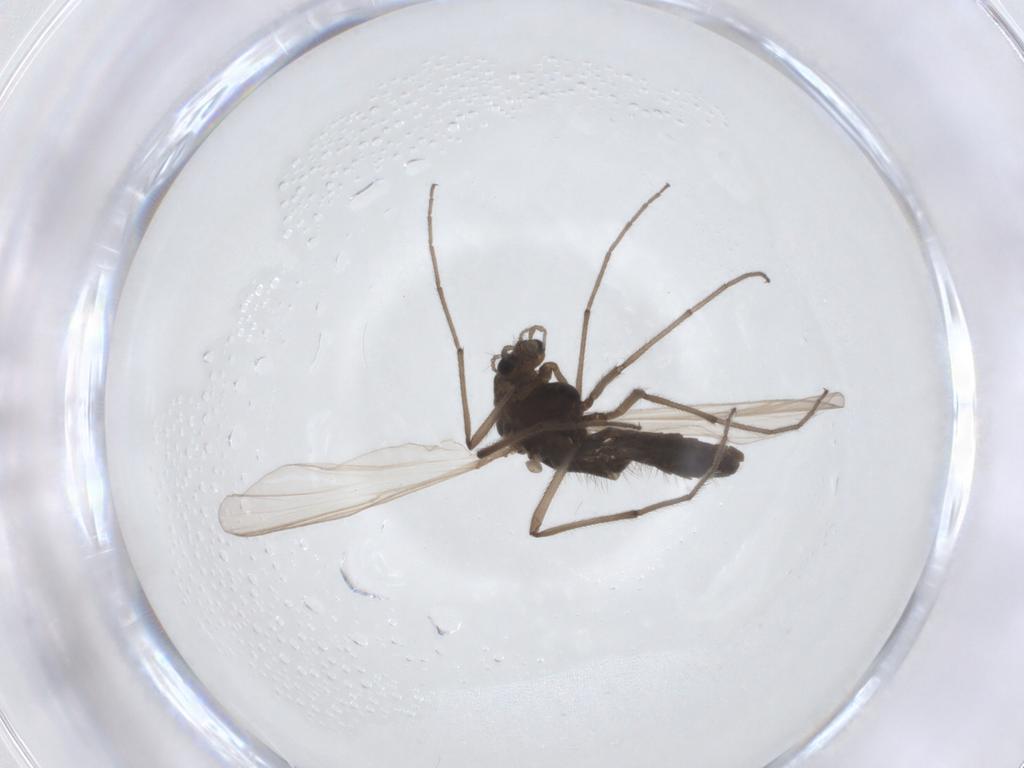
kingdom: Animalia
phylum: Arthropoda
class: Insecta
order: Diptera
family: Chironomidae
